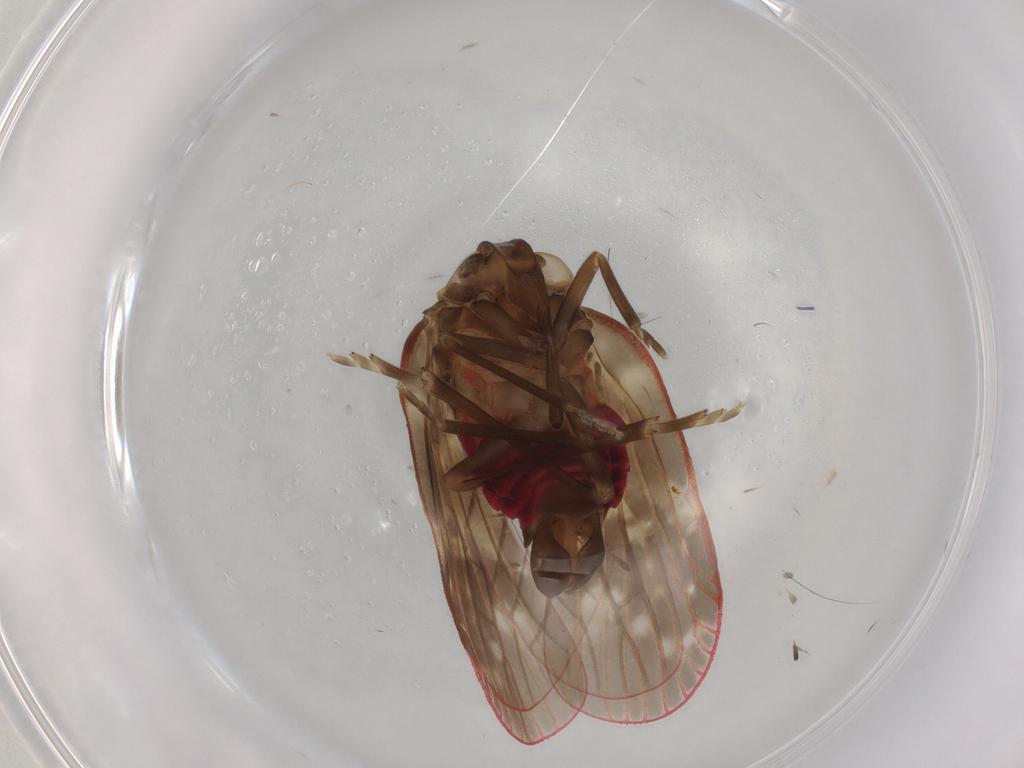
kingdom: Animalia
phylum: Arthropoda
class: Insecta
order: Hemiptera
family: Achilidae
